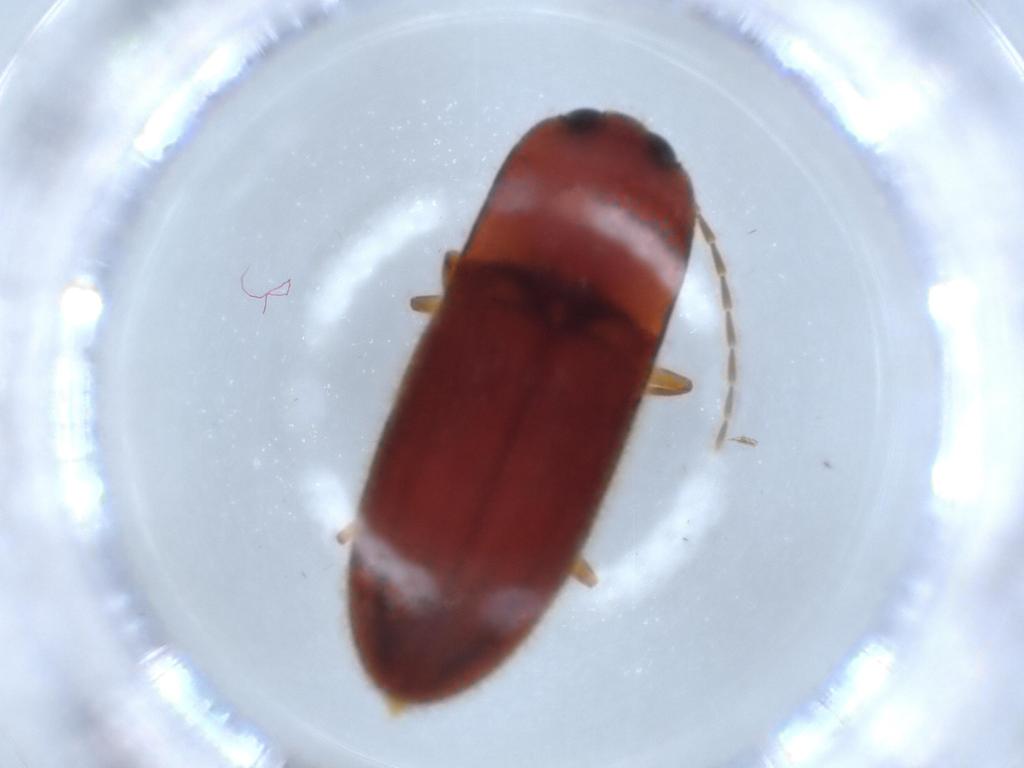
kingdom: Animalia
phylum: Arthropoda
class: Insecta
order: Coleoptera
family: Elateridae
